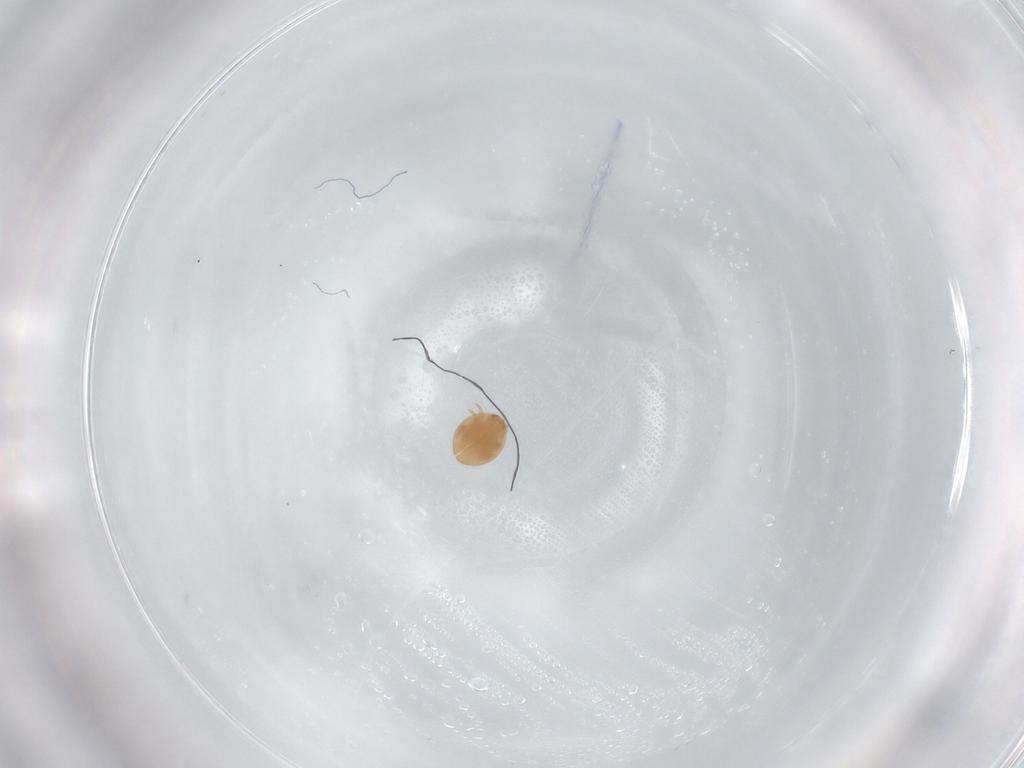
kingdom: Animalia
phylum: Arthropoda
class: Arachnida
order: Mesostigmata
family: Trematuridae
